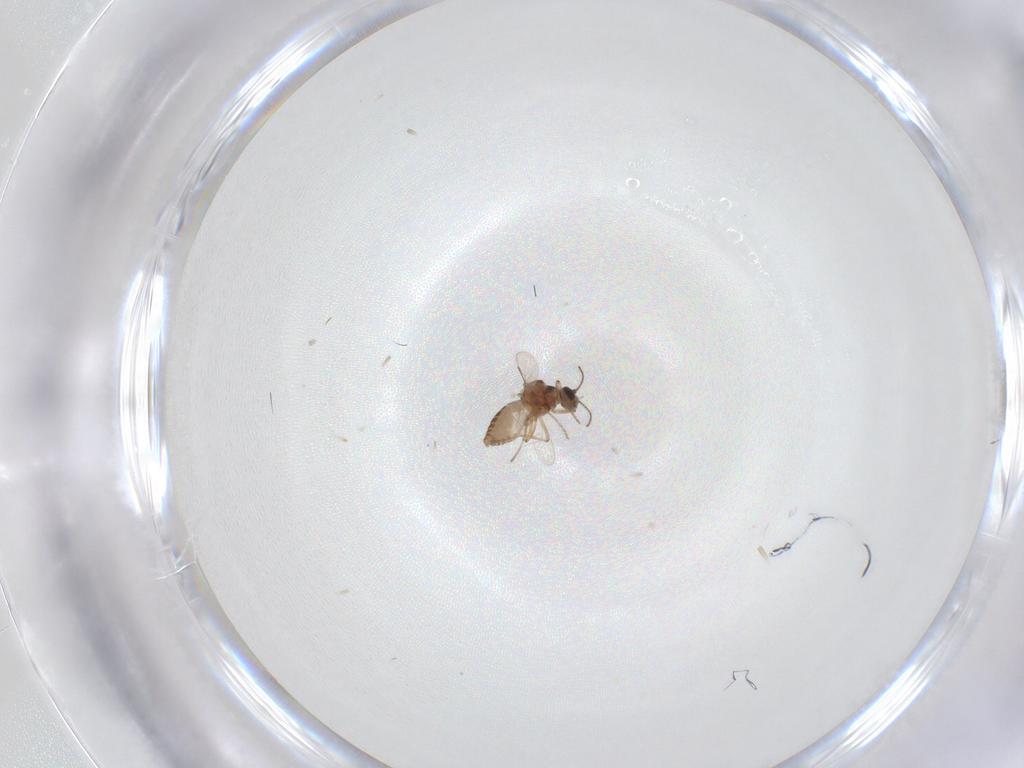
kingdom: Animalia
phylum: Arthropoda
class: Insecta
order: Diptera
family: Ceratopogonidae
